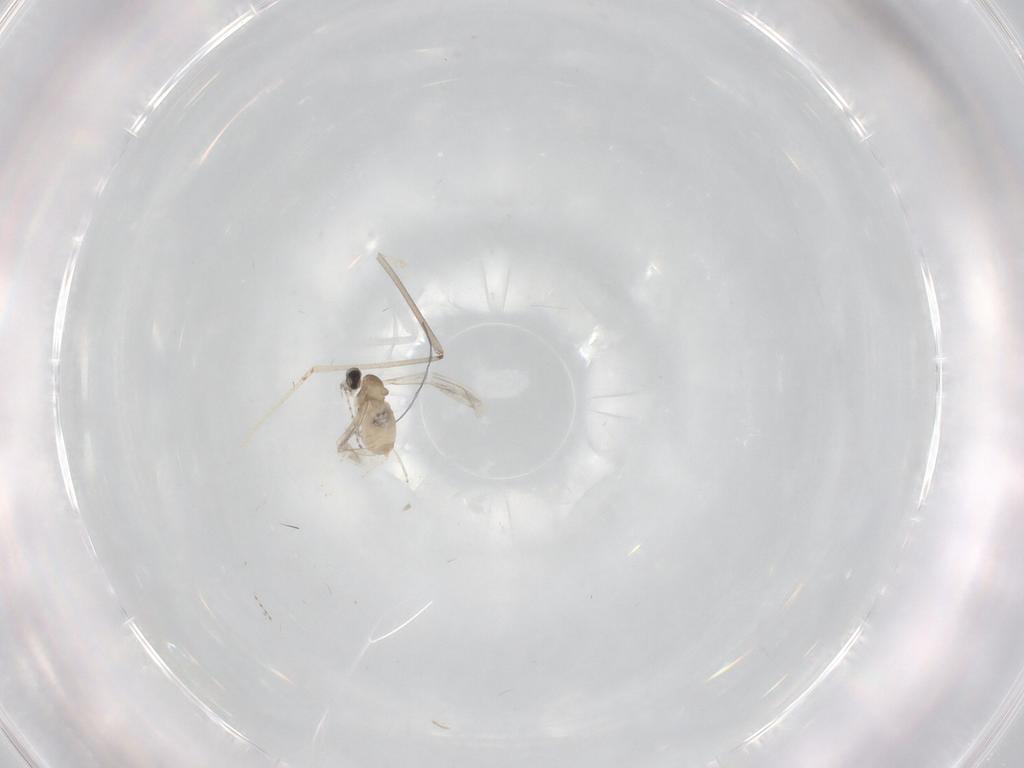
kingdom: Animalia
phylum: Arthropoda
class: Insecta
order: Diptera
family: Cecidomyiidae
